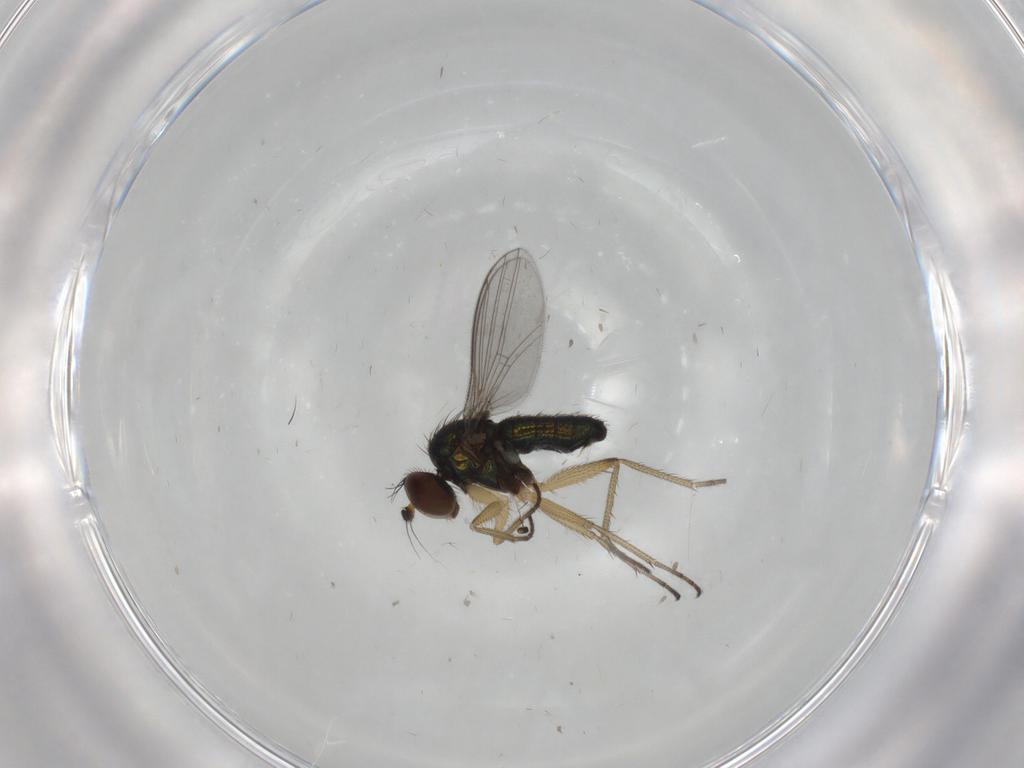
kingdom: Animalia
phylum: Arthropoda
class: Insecta
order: Diptera
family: Dolichopodidae
